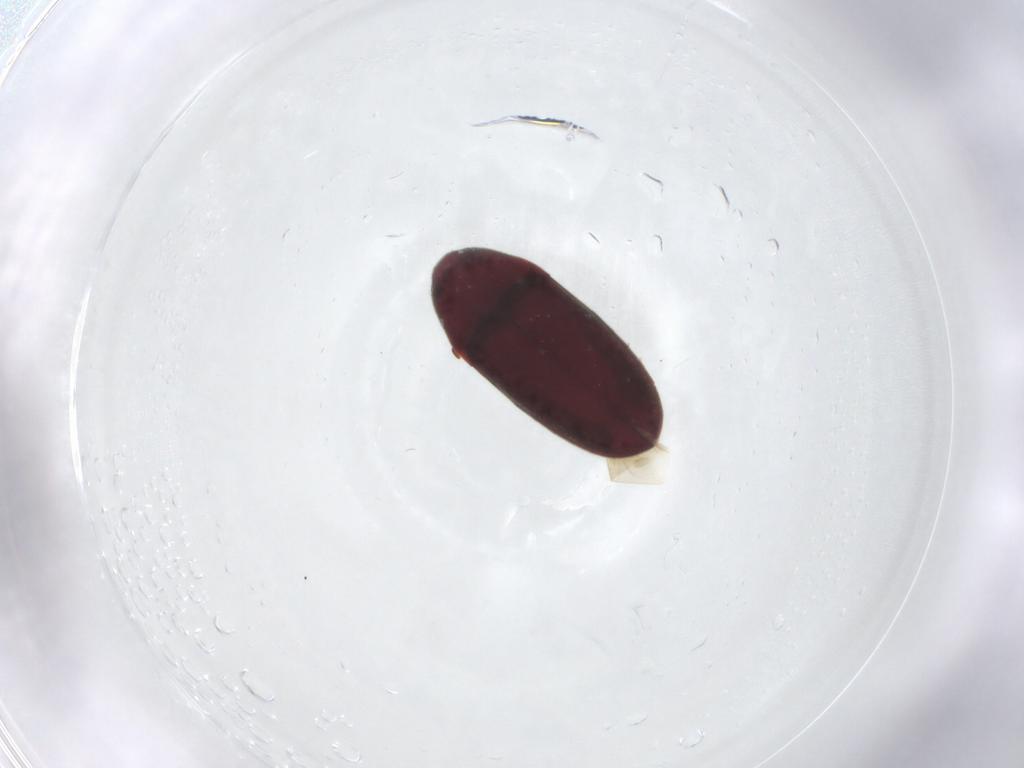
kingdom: Animalia
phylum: Arthropoda
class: Insecta
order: Coleoptera
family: Throscidae
